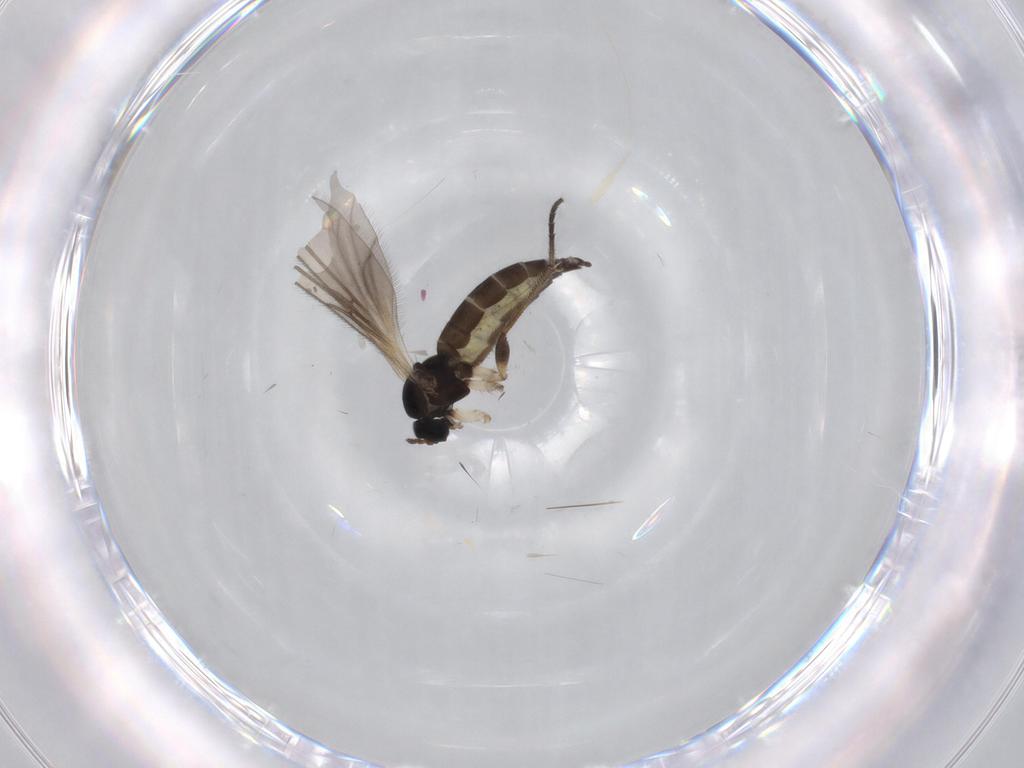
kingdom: Animalia
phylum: Arthropoda
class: Insecta
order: Diptera
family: Sciaridae
